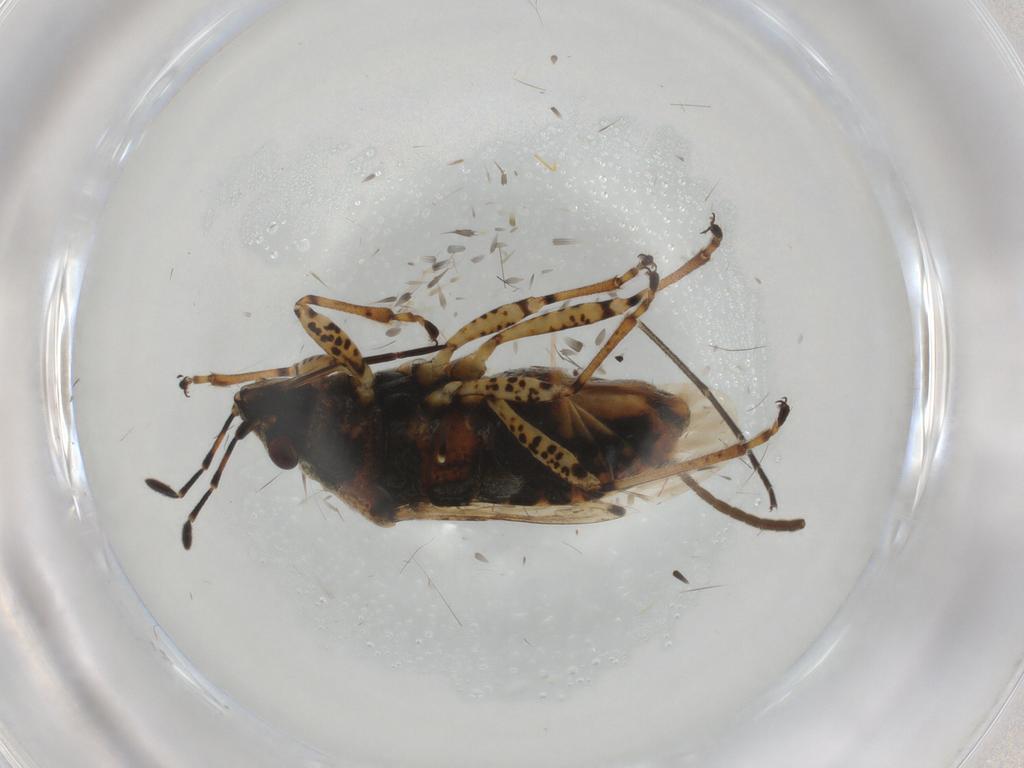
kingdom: Animalia
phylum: Arthropoda
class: Insecta
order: Hemiptera
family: Lygaeidae
